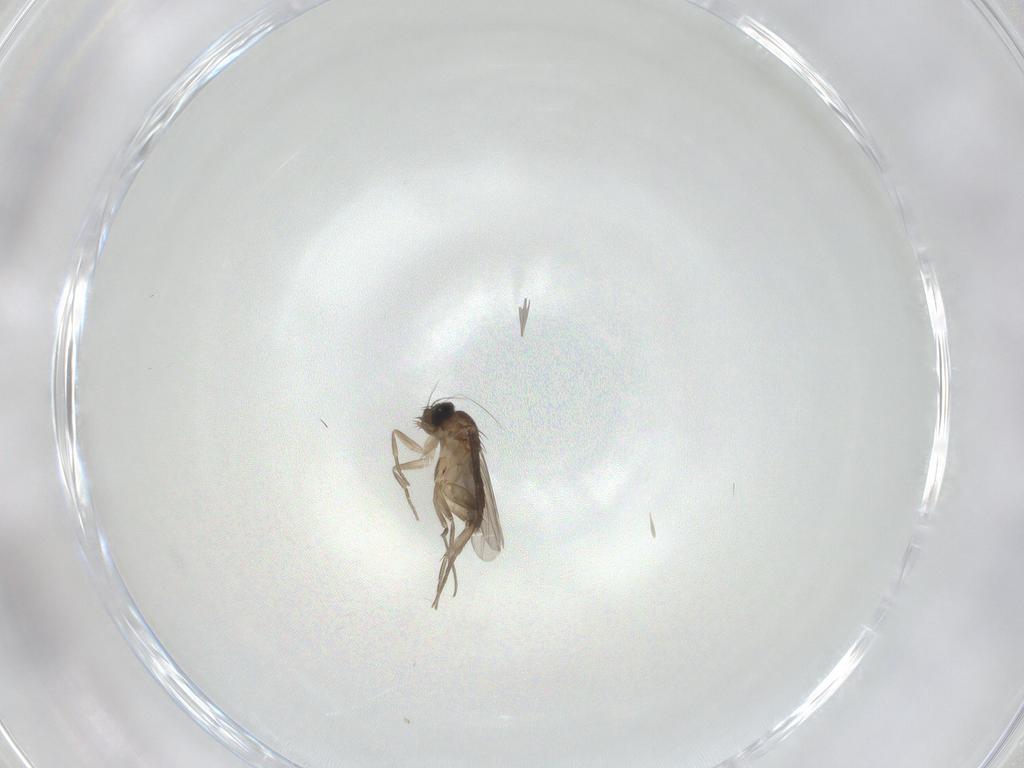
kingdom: Animalia
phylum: Arthropoda
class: Insecta
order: Diptera
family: Phoridae
